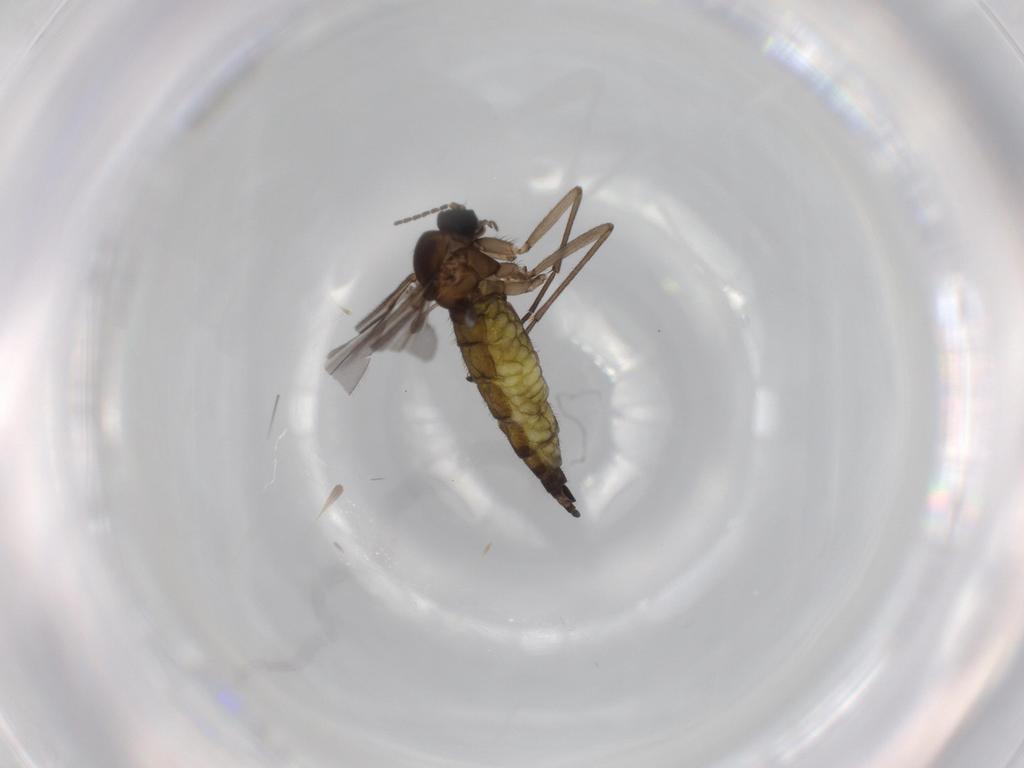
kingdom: Animalia
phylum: Arthropoda
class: Insecta
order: Diptera
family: Sciaridae
